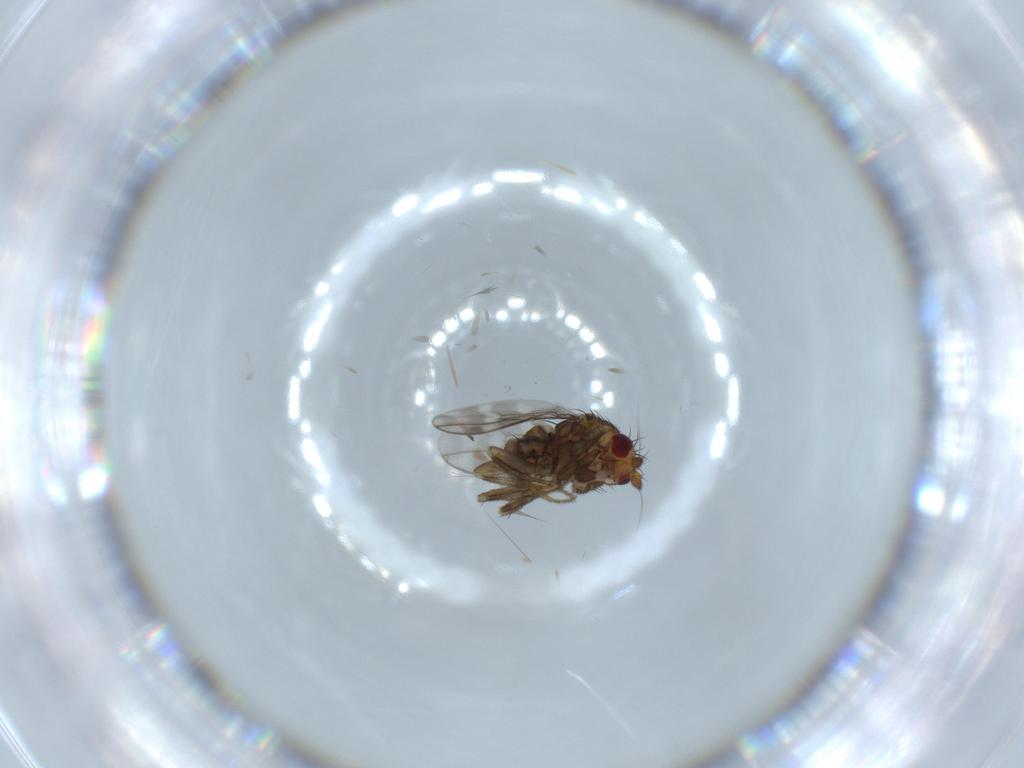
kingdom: Animalia
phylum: Arthropoda
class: Insecta
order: Diptera
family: Sphaeroceridae
